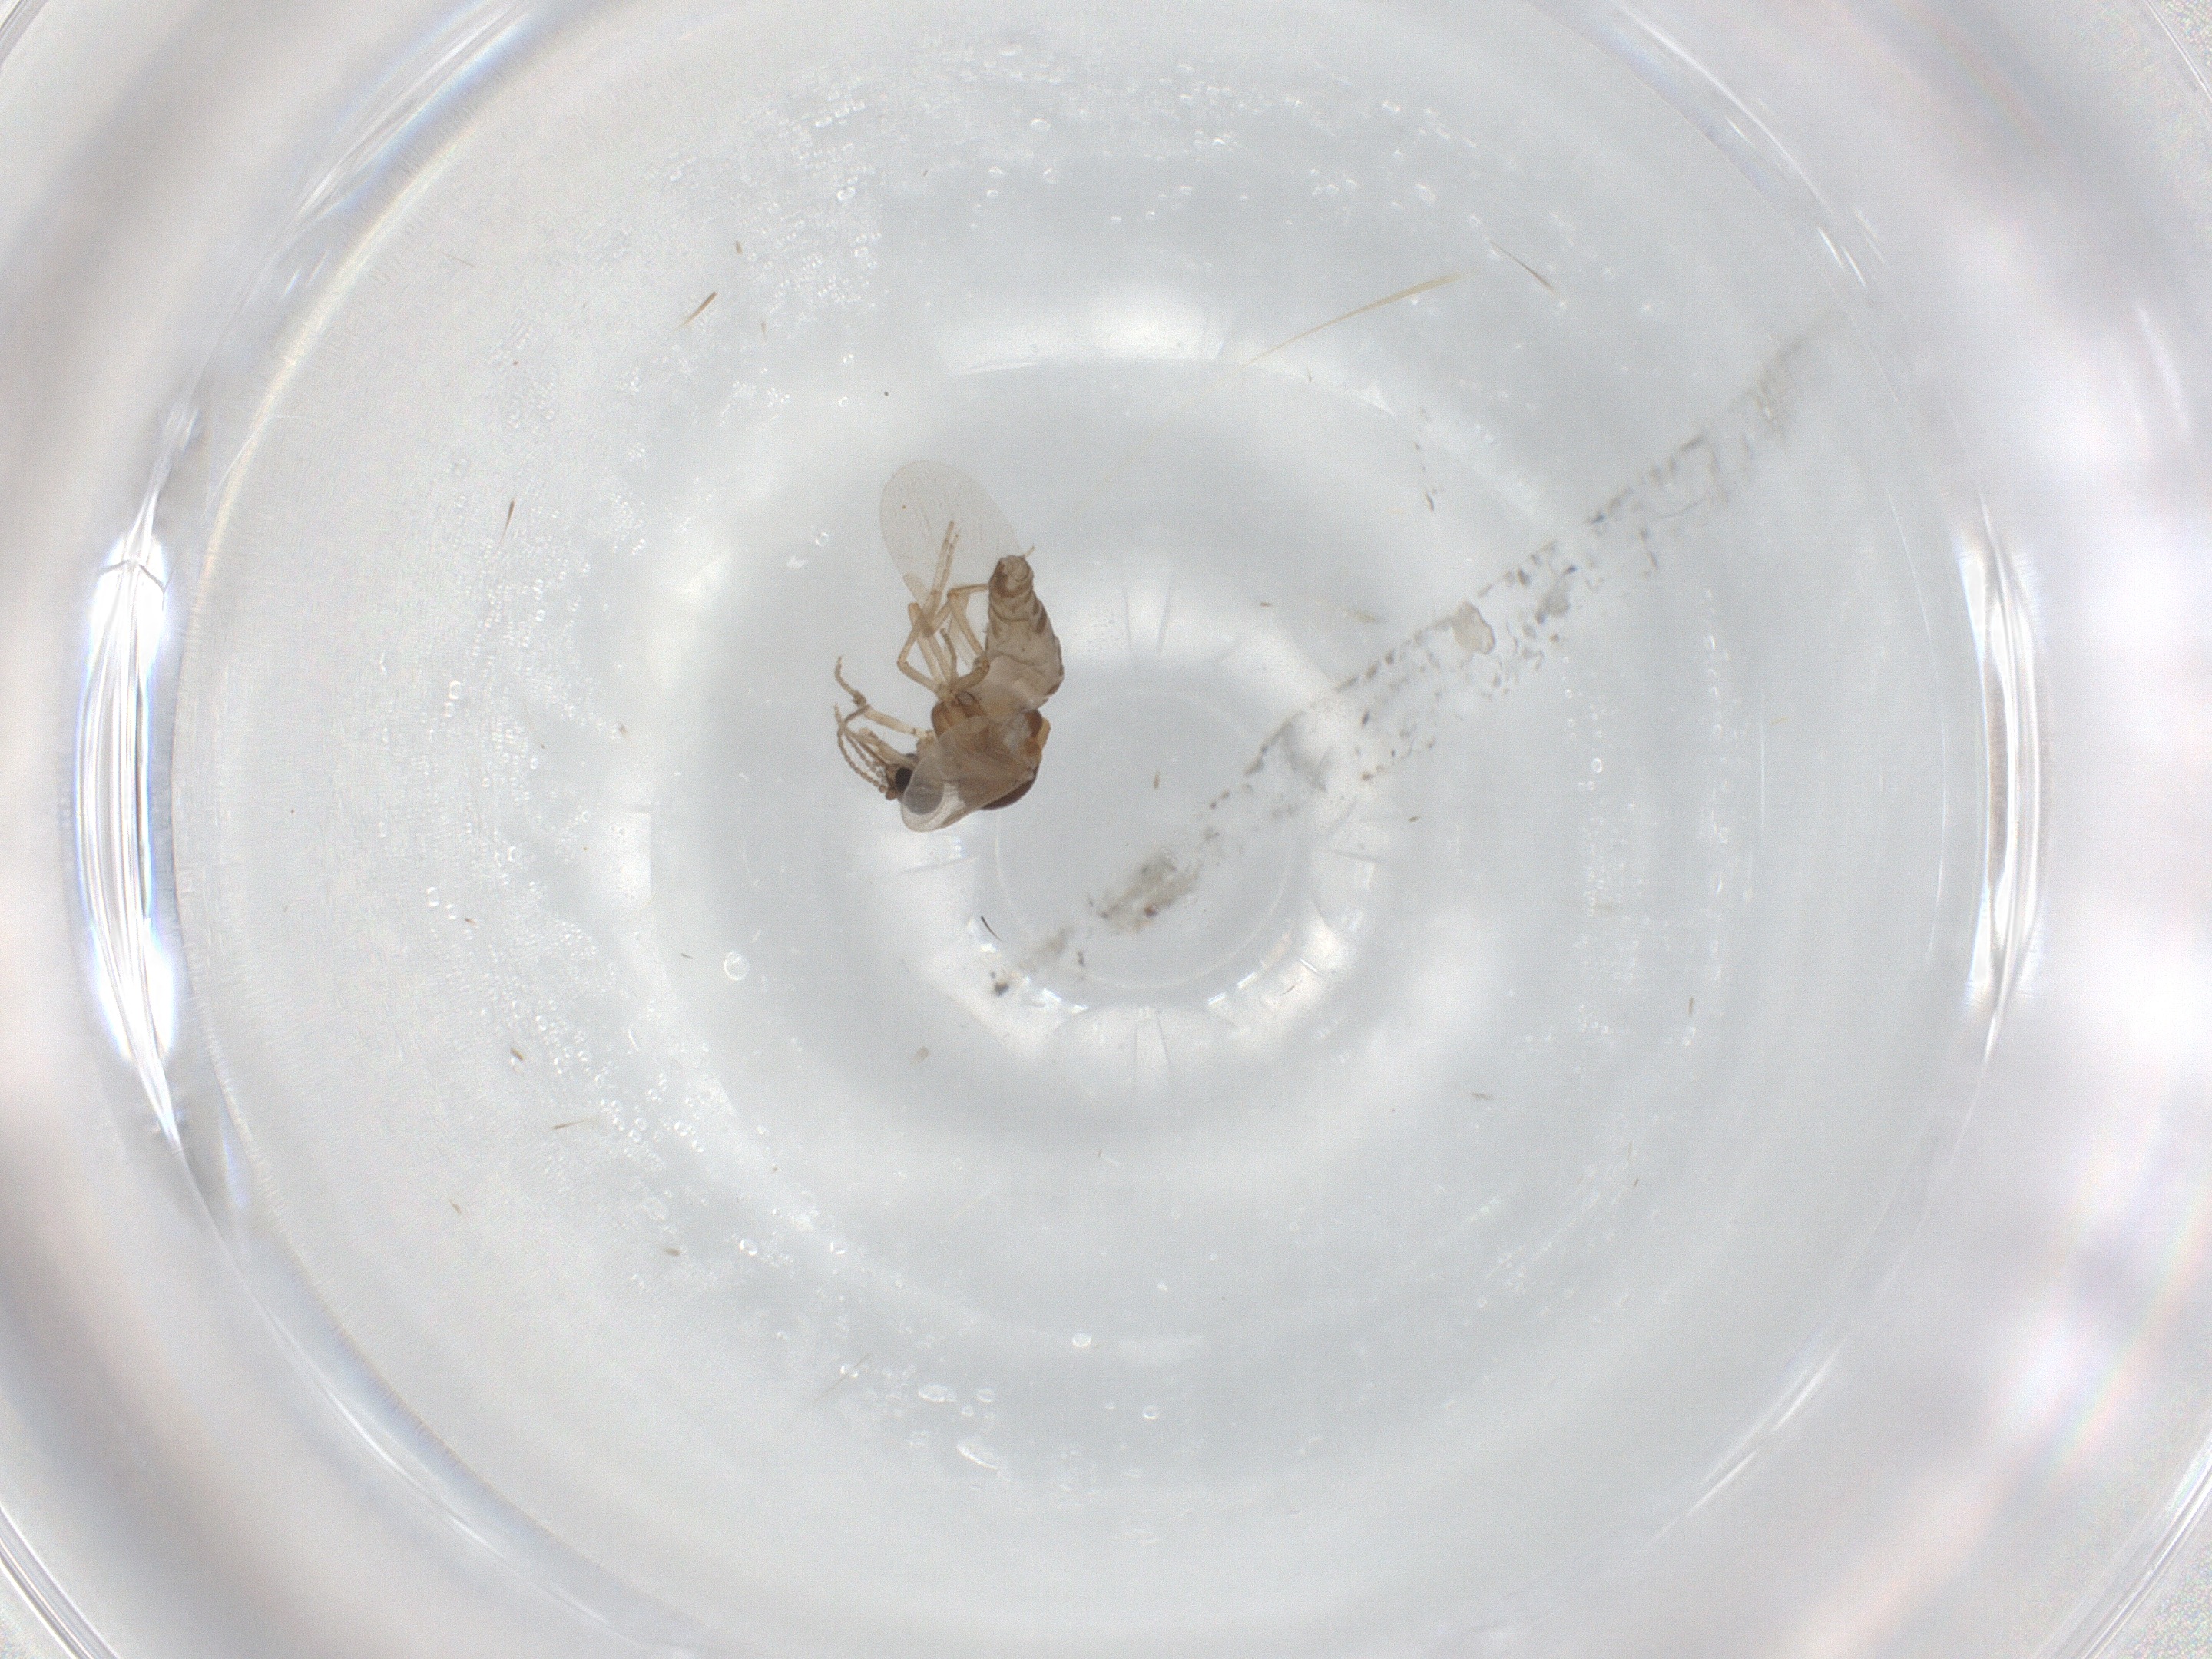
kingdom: Animalia
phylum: Arthropoda
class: Insecta
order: Diptera
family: Ceratopogonidae
